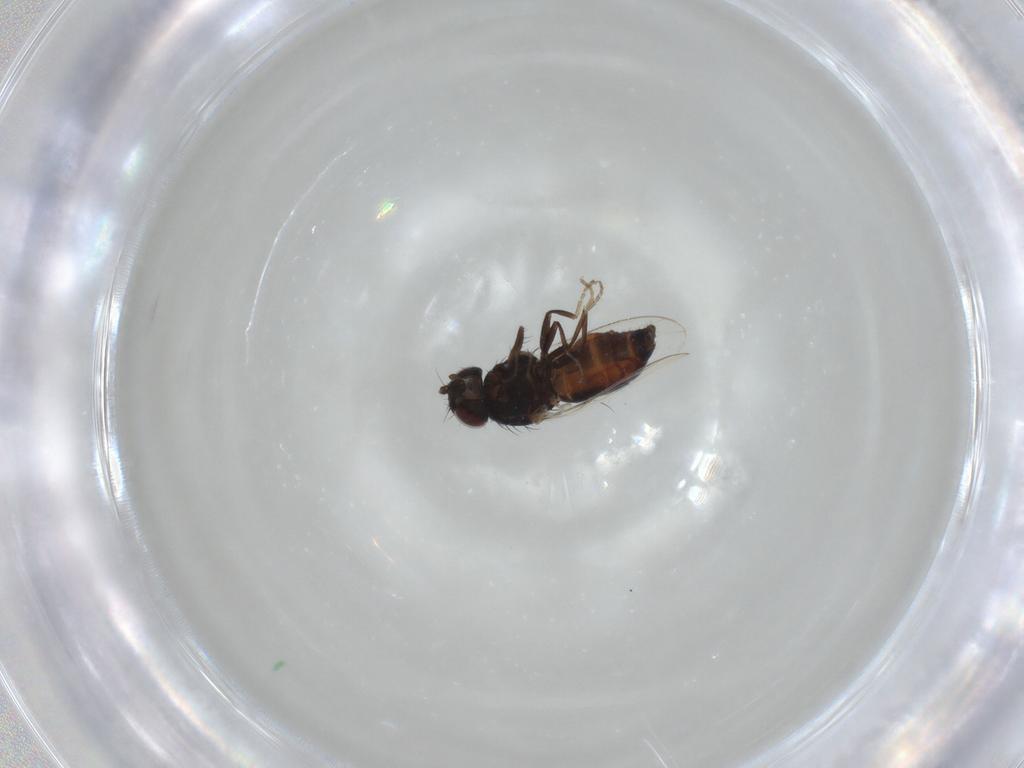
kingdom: Animalia
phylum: Arthropoda
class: Insecta
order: Diptera
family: Carnidae
